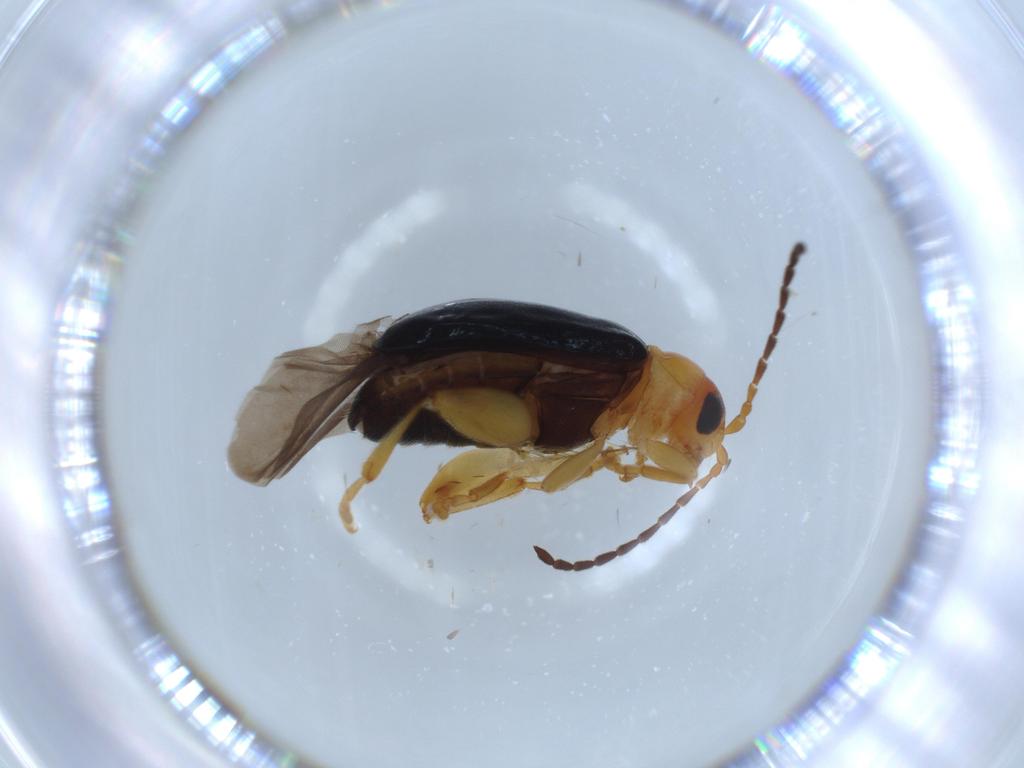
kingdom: Animalia
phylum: Arthropoda
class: Insecta
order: Coleoptera
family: Chrysomelidae
